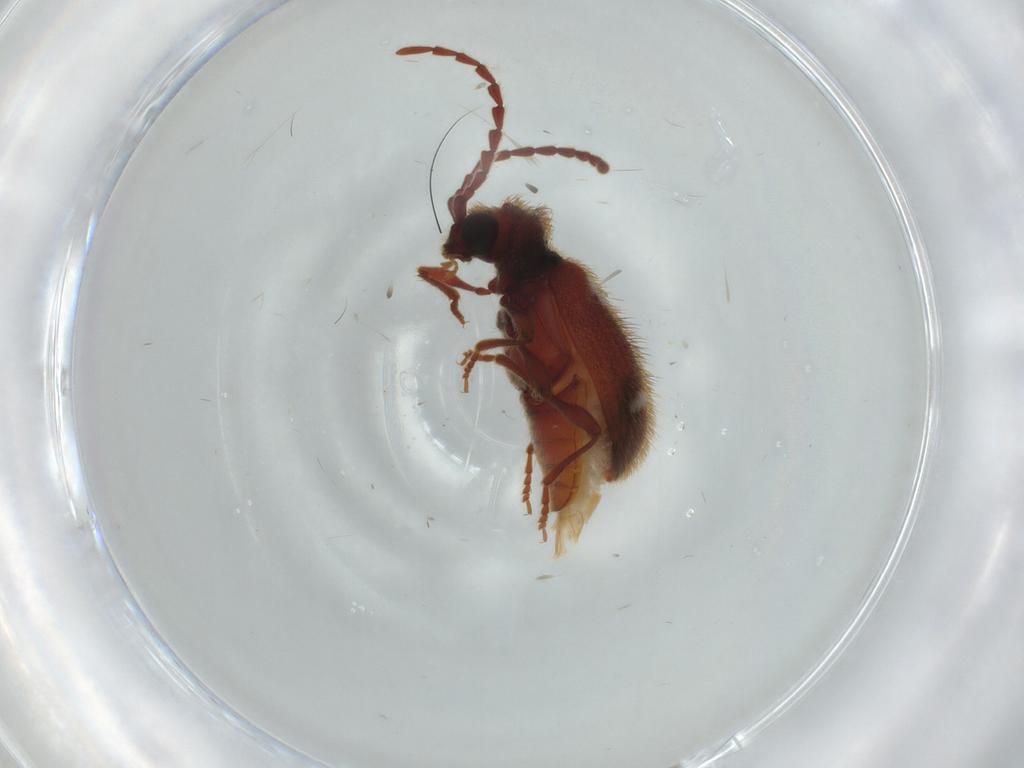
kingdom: Animalia
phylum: Arthropoda
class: Insecta
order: Coleoptera
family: Ptinidae
